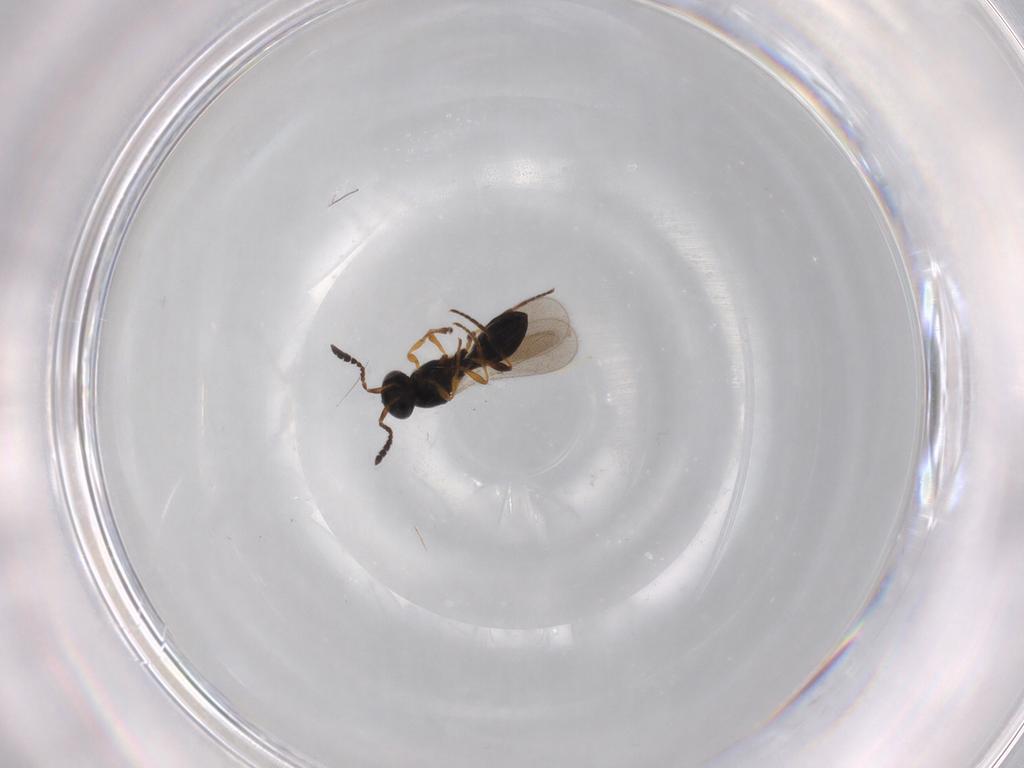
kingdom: Animalia
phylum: Arthropoda
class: Insecta
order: Hymenoptera
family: Platygastridae
